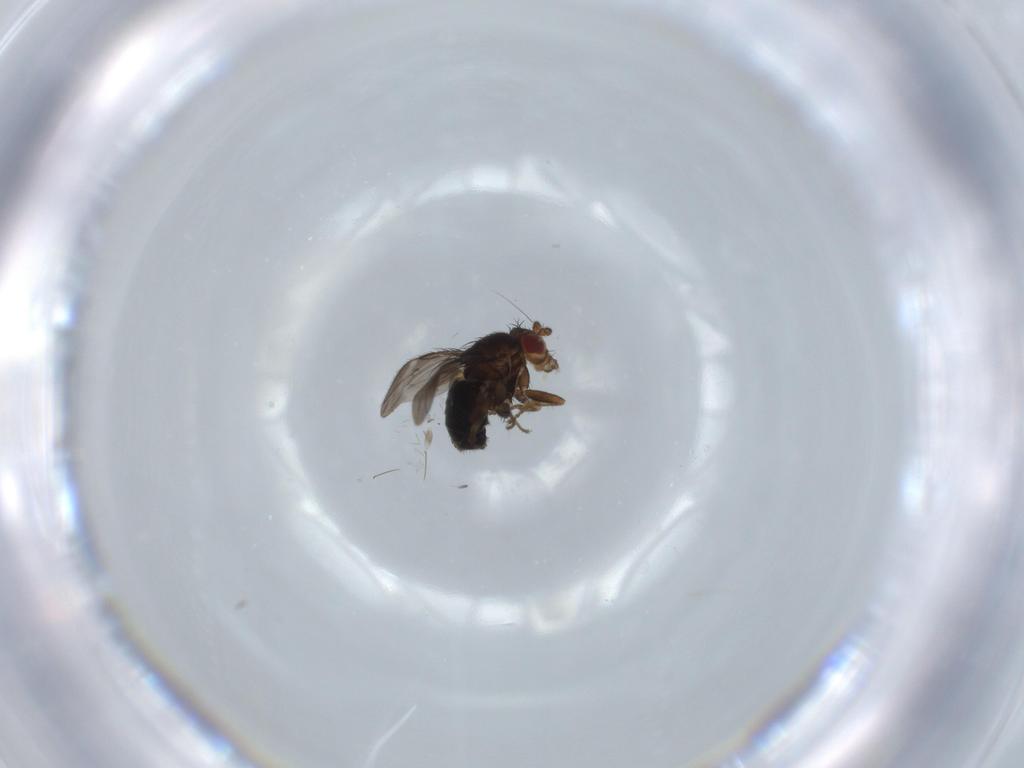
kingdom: Animalia
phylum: Arthropoda
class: Insecta
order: Diptera
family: Sphaeroceridae
